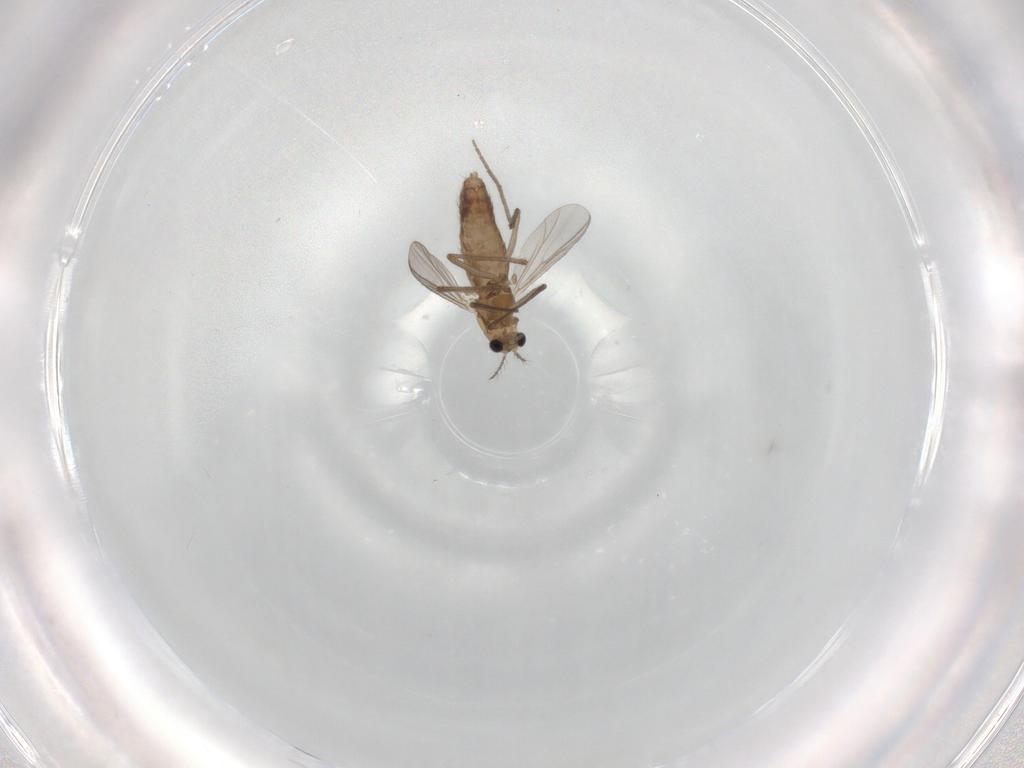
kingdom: Animalia
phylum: Arthropoda
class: Insecta
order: Diptera
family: Chironomidae
